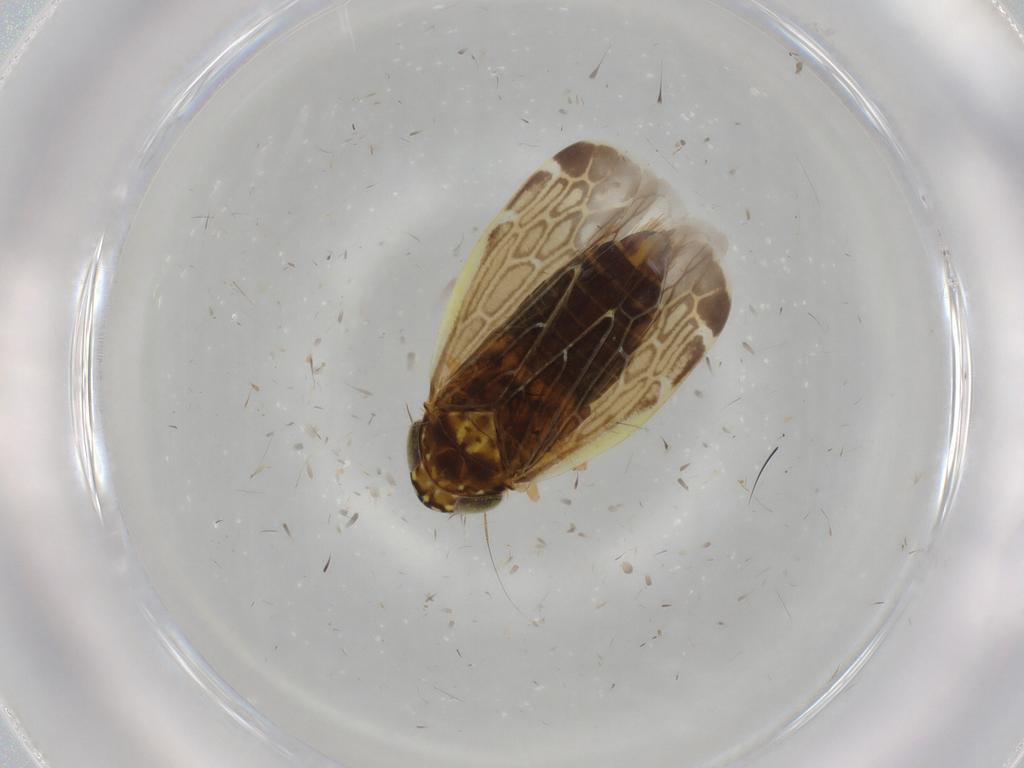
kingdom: Animalia
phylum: Arthropoda
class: Insecta
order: Hemiptera
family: Cicadellidae
